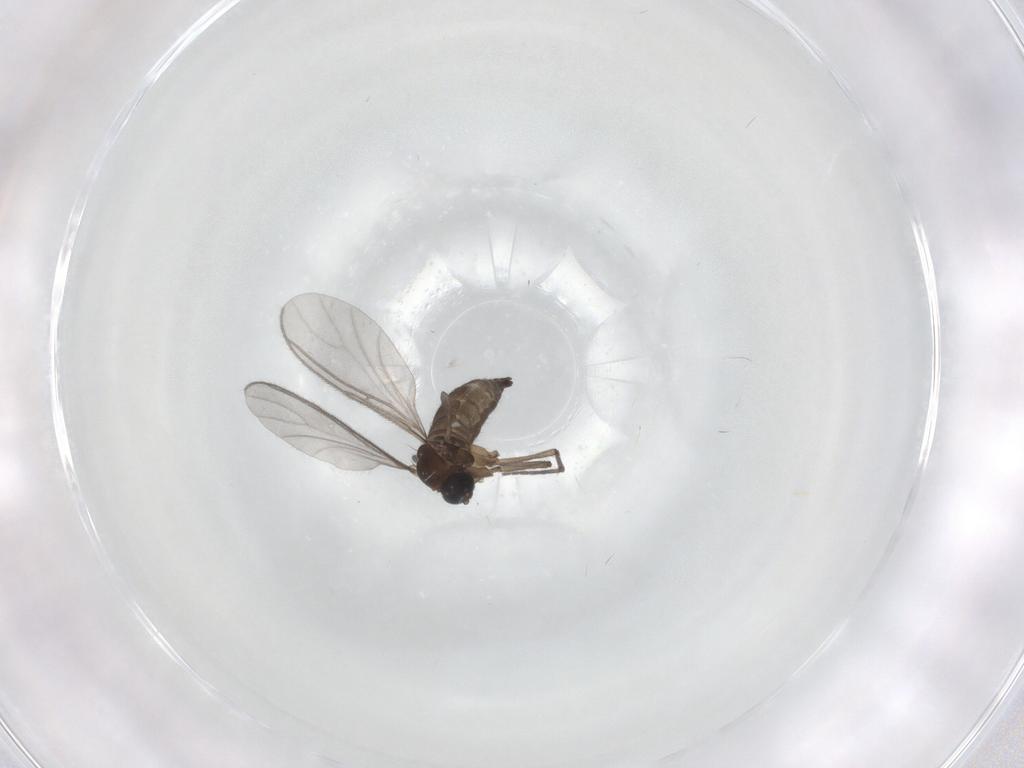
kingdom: Animalia
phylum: Arthropoda
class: Insecta
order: Diptera
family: Sciaridae
